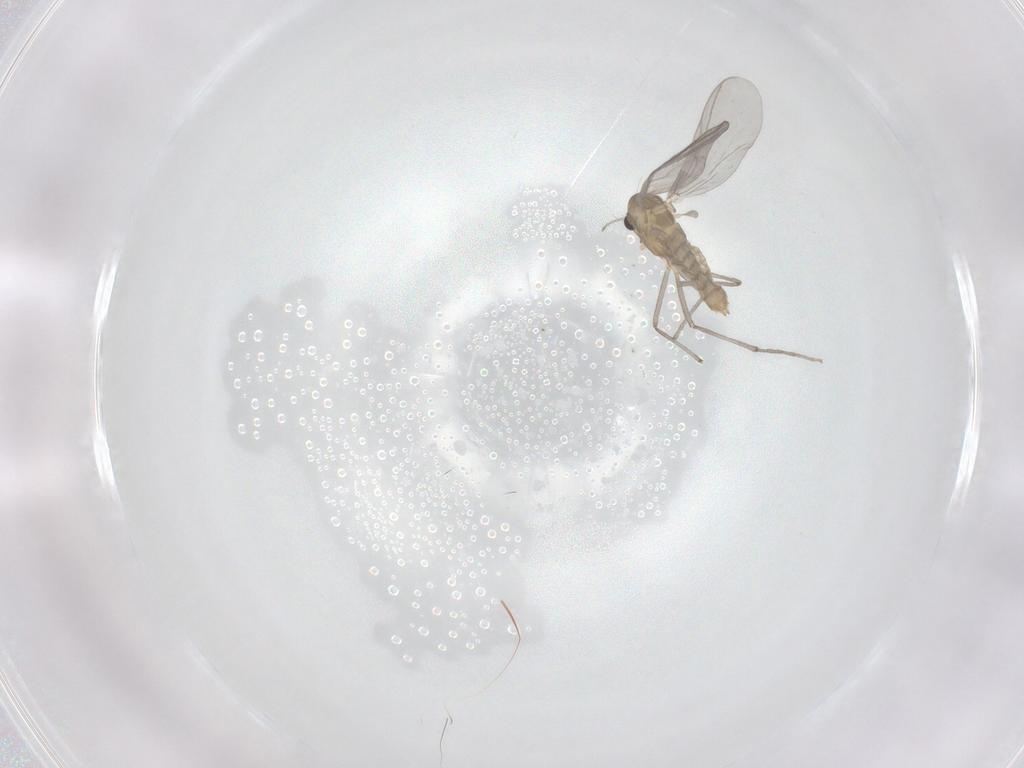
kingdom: Animalia
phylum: Arthropoda
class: Insecta
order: Diptera
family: Chironomidae
